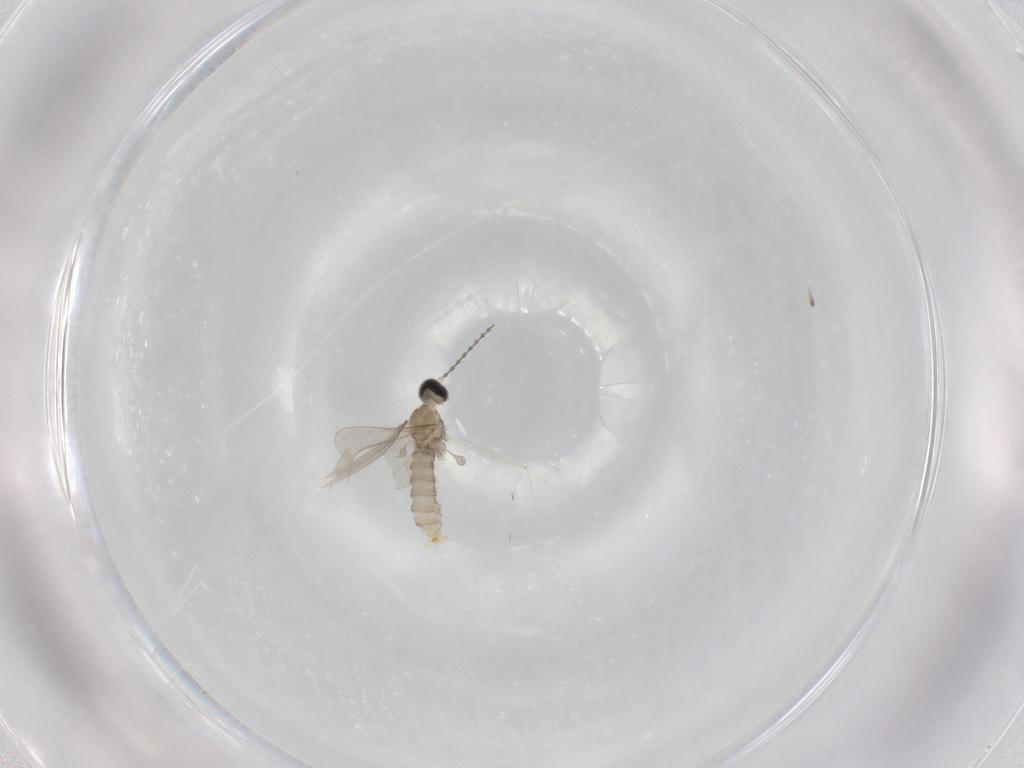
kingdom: Animalia
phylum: Arthropoda
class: Insecta
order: Diptera
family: Cecidomyiidae
